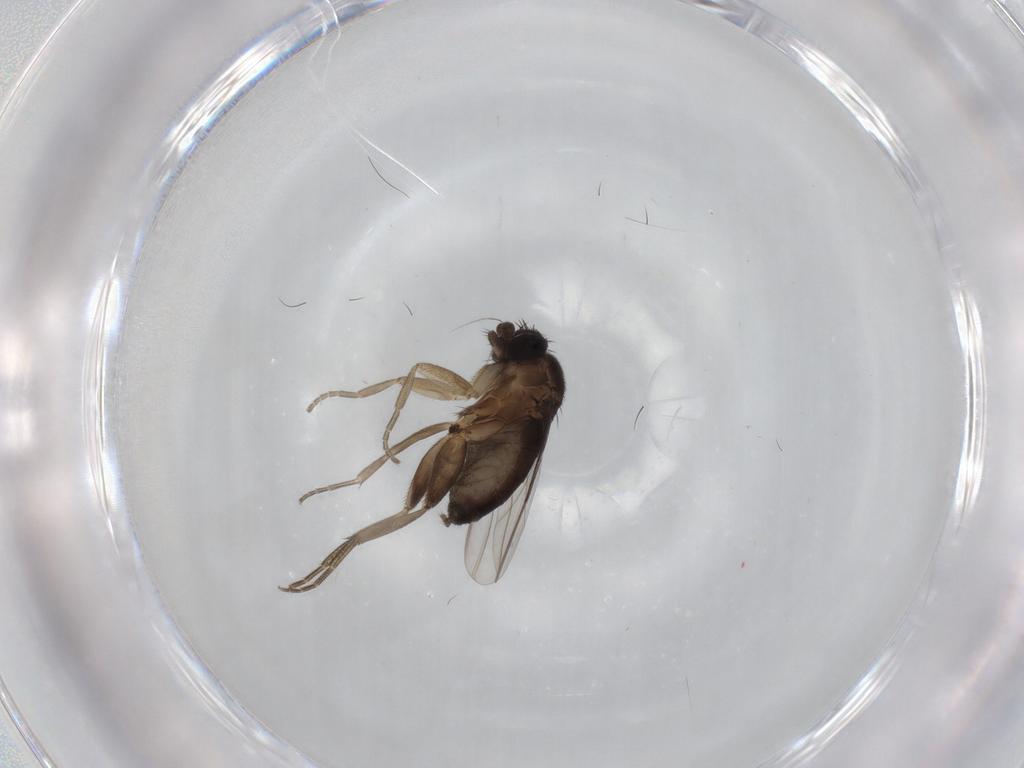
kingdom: Animalia
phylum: Arthropoda
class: Insecta
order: Diptera
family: Phoridae
